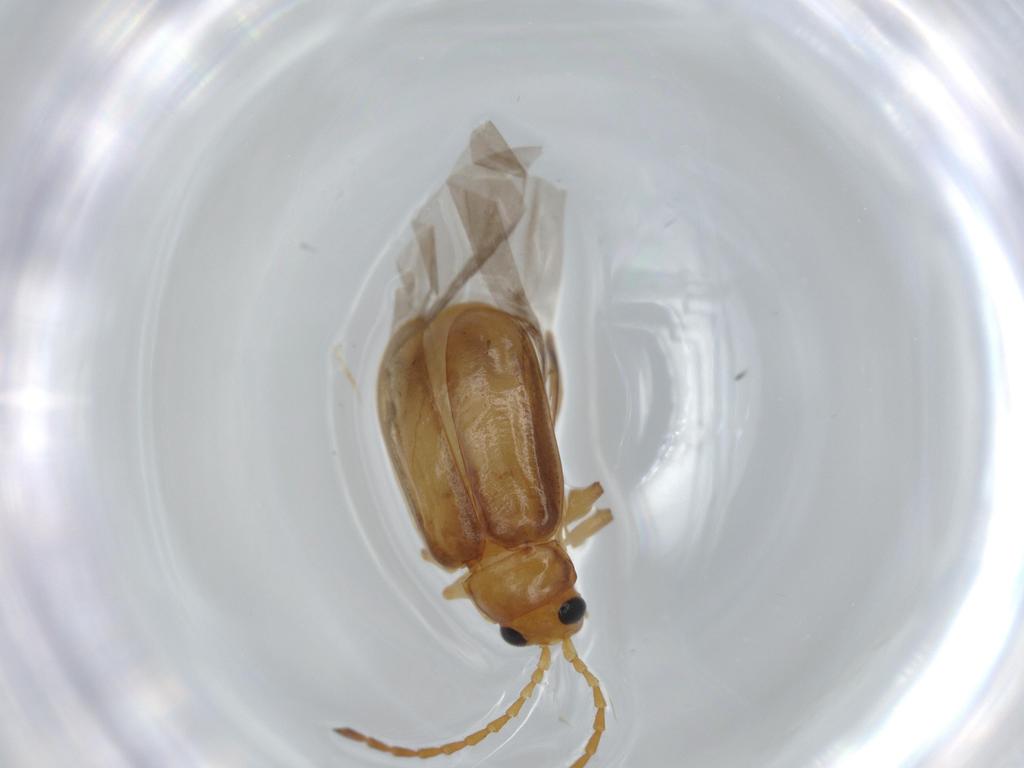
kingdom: Animalia
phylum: Arthropoda
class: Insecta
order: Coleoptera
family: Chrysomelidae
